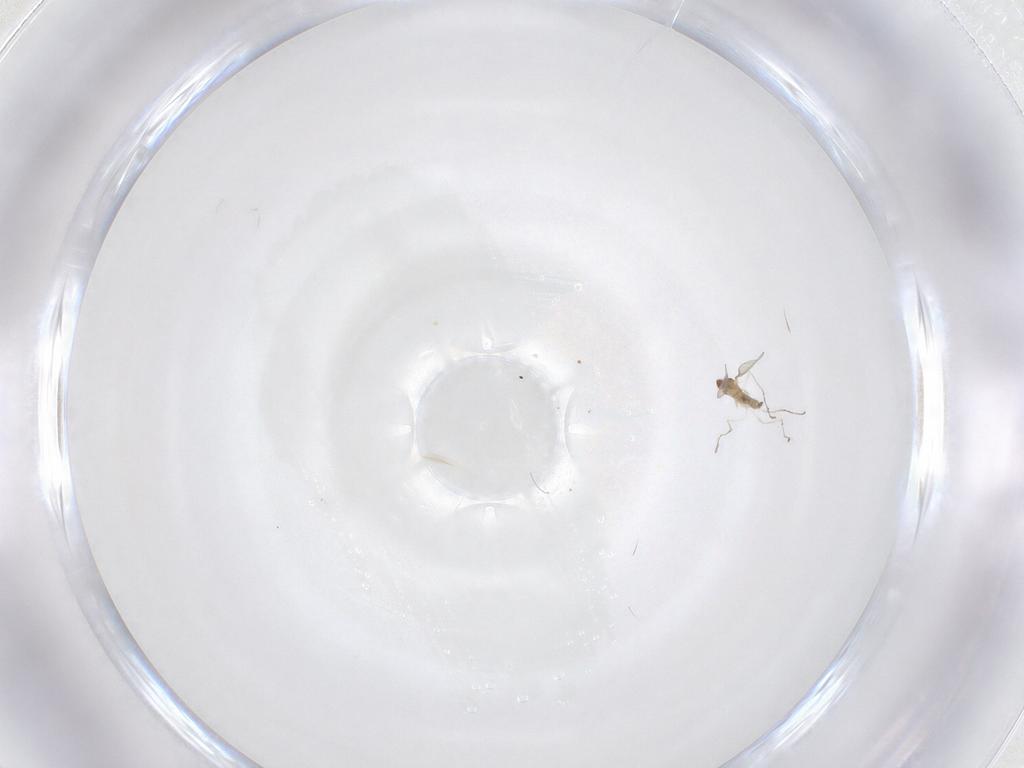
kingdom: Animalia
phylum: Arthropoda
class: Insecta
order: Diptera
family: Cecidomyiidae
